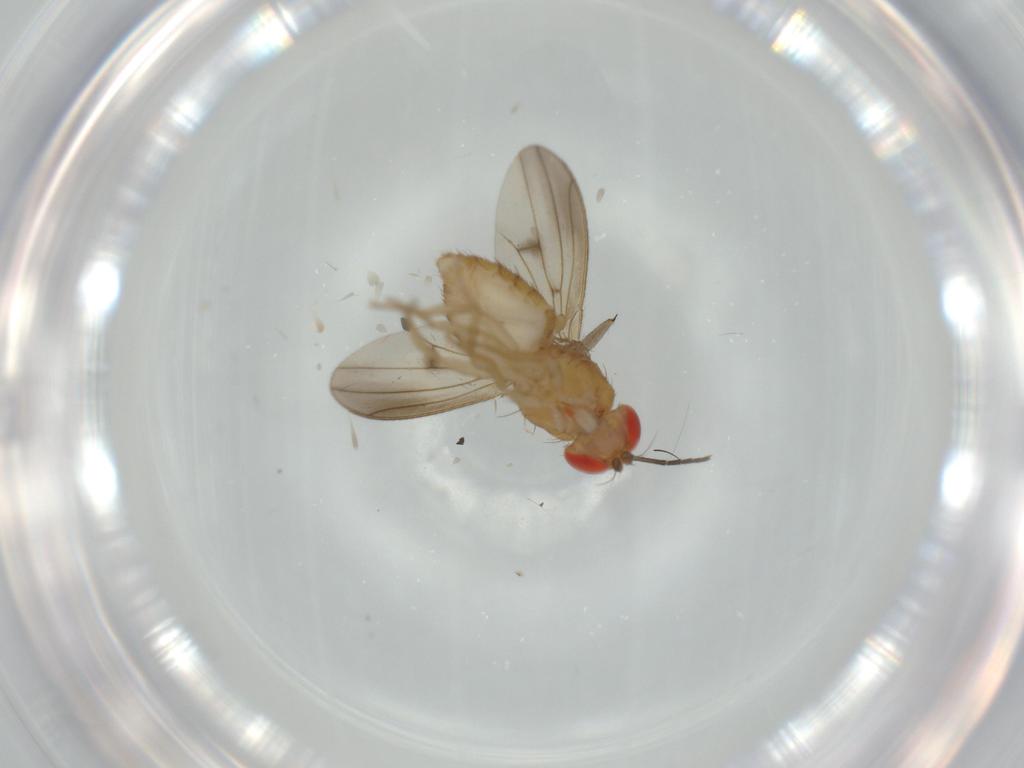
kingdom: Animalia
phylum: Arthropoda
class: Insecta
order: Diptera
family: Drosophilidae
